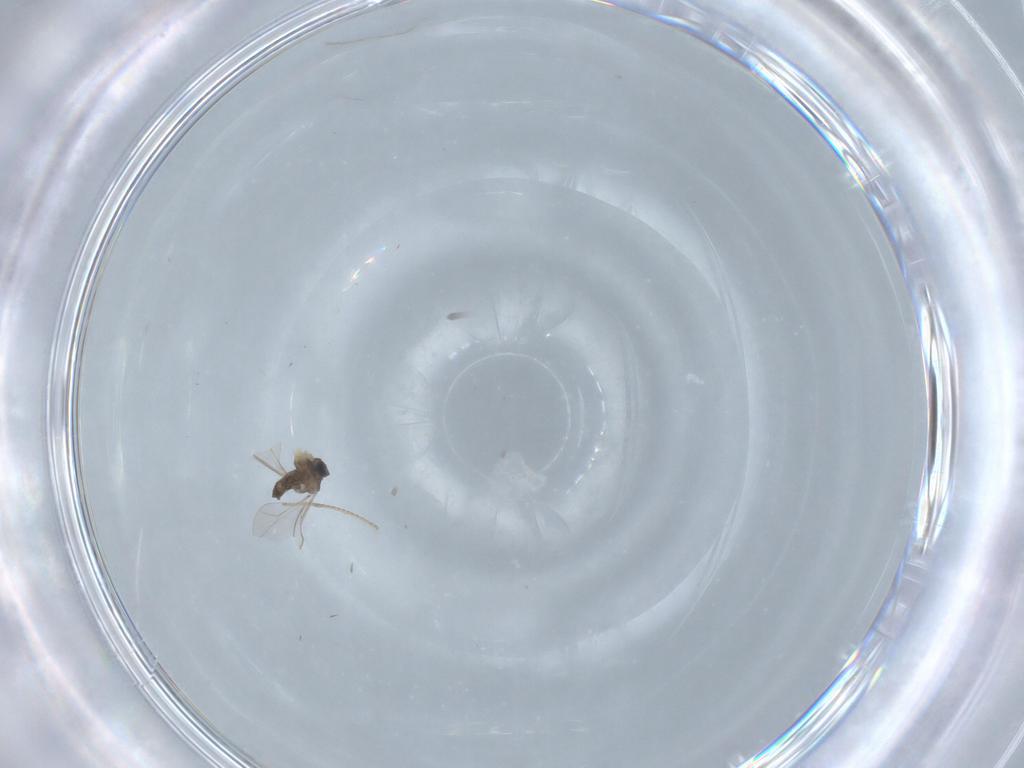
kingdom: Animalia
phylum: Arthropoda
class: Insecta
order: Diptera
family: Cecidomyiidae
